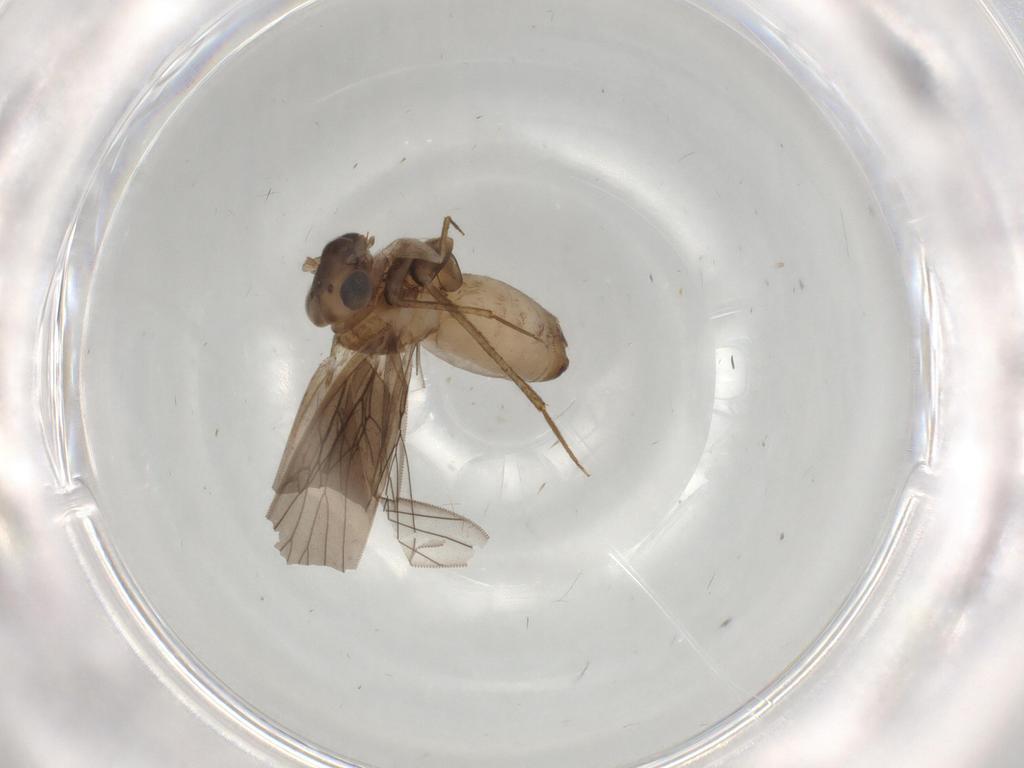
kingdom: Animalia
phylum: Arthropoda
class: Insecta
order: Psocodea
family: Lepidopsocidae
